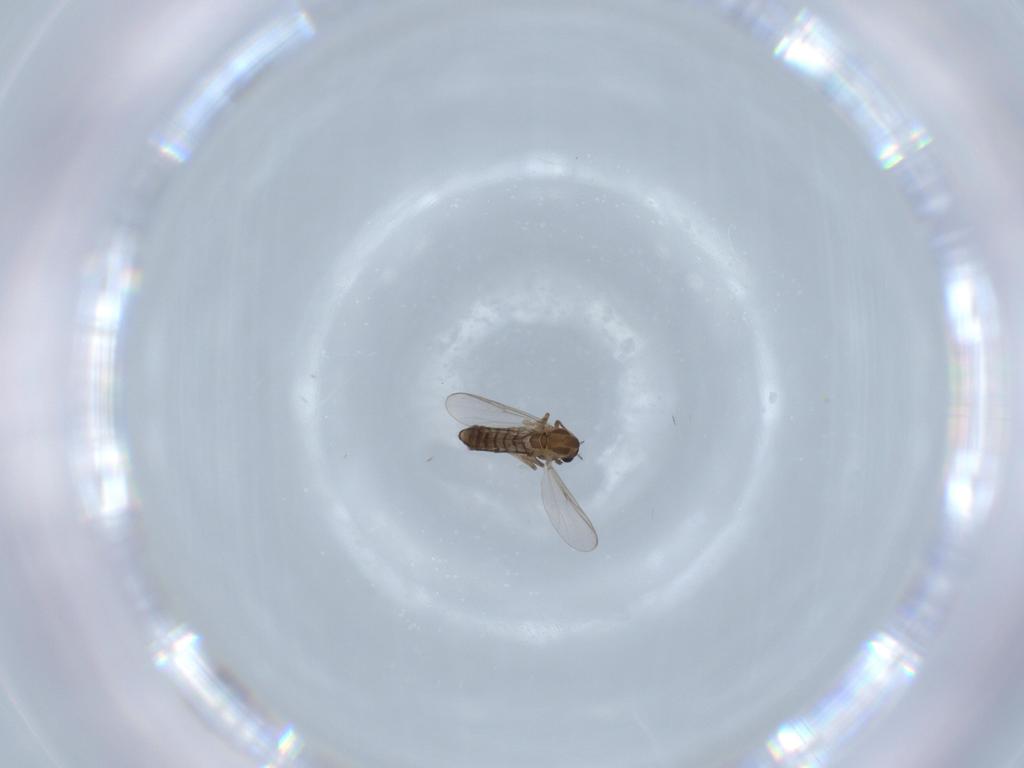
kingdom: Animalia
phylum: Arthropoda
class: Insecta
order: Diptera
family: Chironomidae
